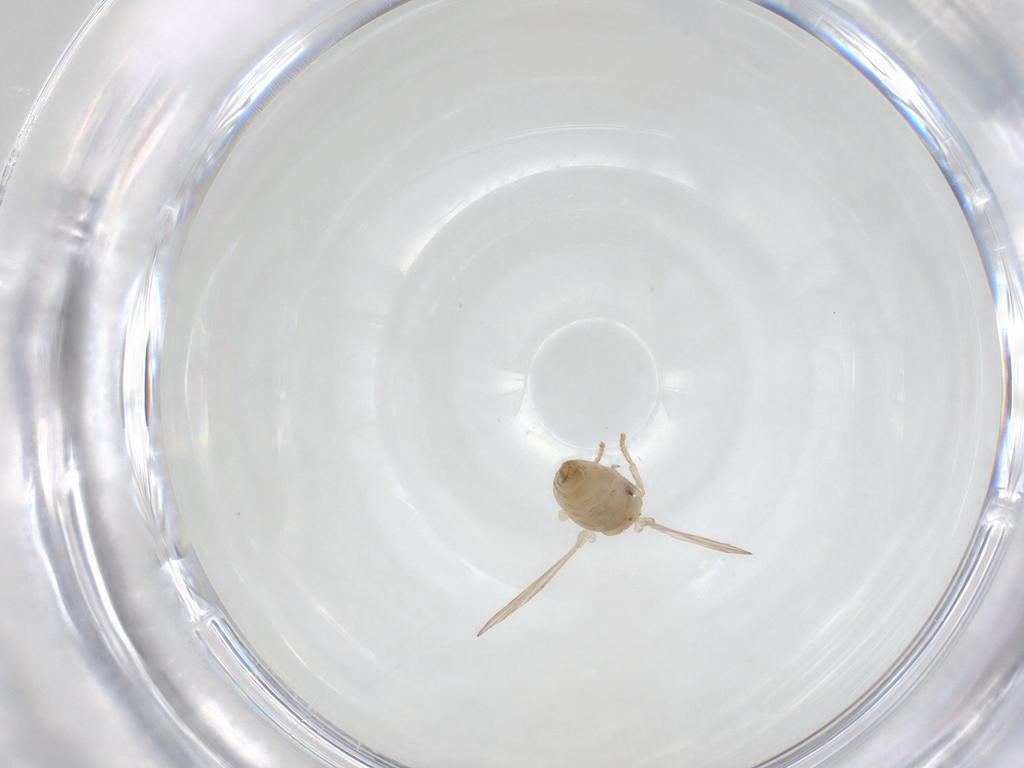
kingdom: Animalia
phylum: Arthropoda
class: Insecta
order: Diptera
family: Psychodidae
